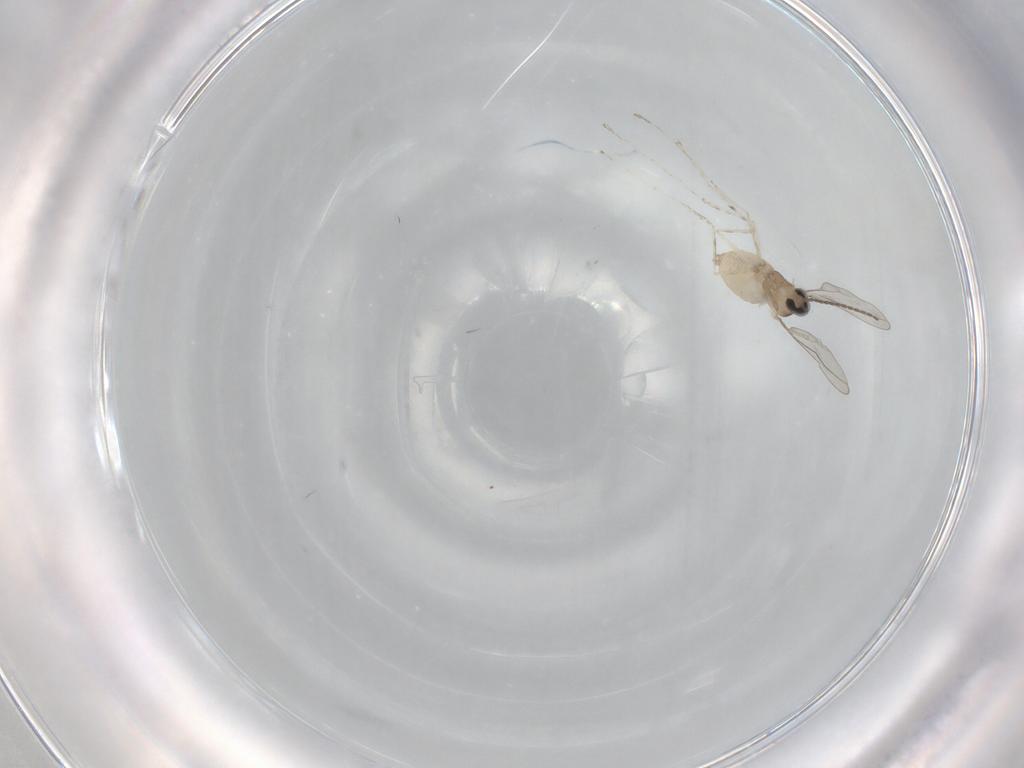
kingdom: Animalia
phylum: Arthropoda
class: Insecta
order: Diptera
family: Cecidomyiidae
